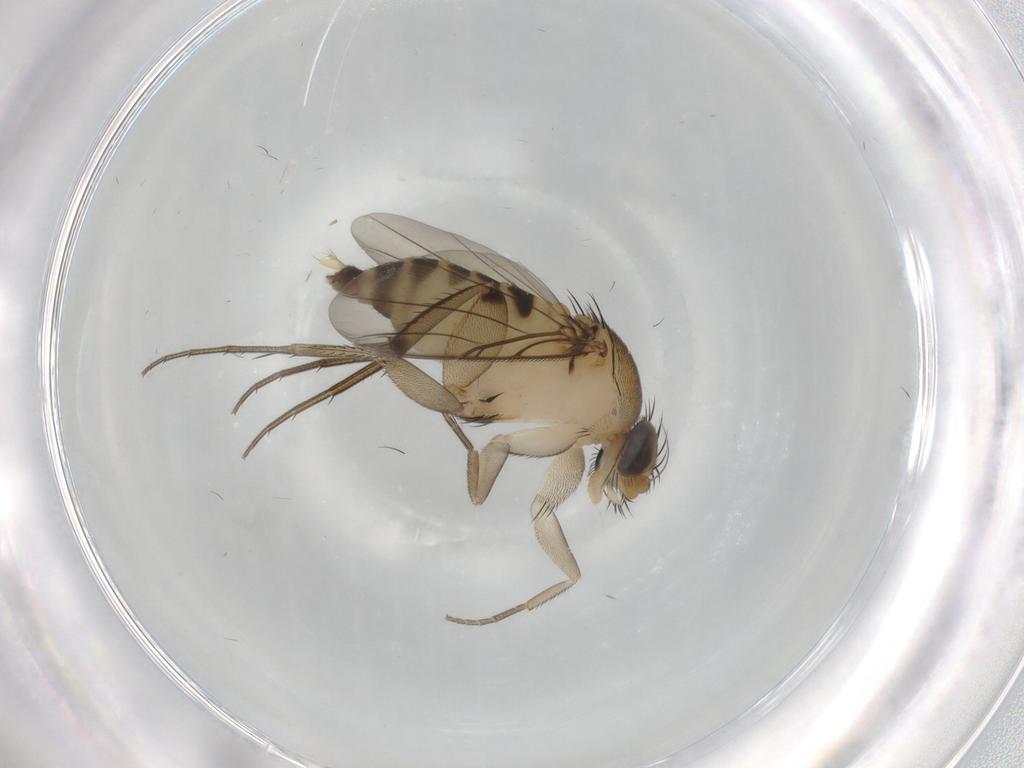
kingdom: Animalia
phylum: Arthropoda
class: Insecta
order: Diptera
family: Phoridae
